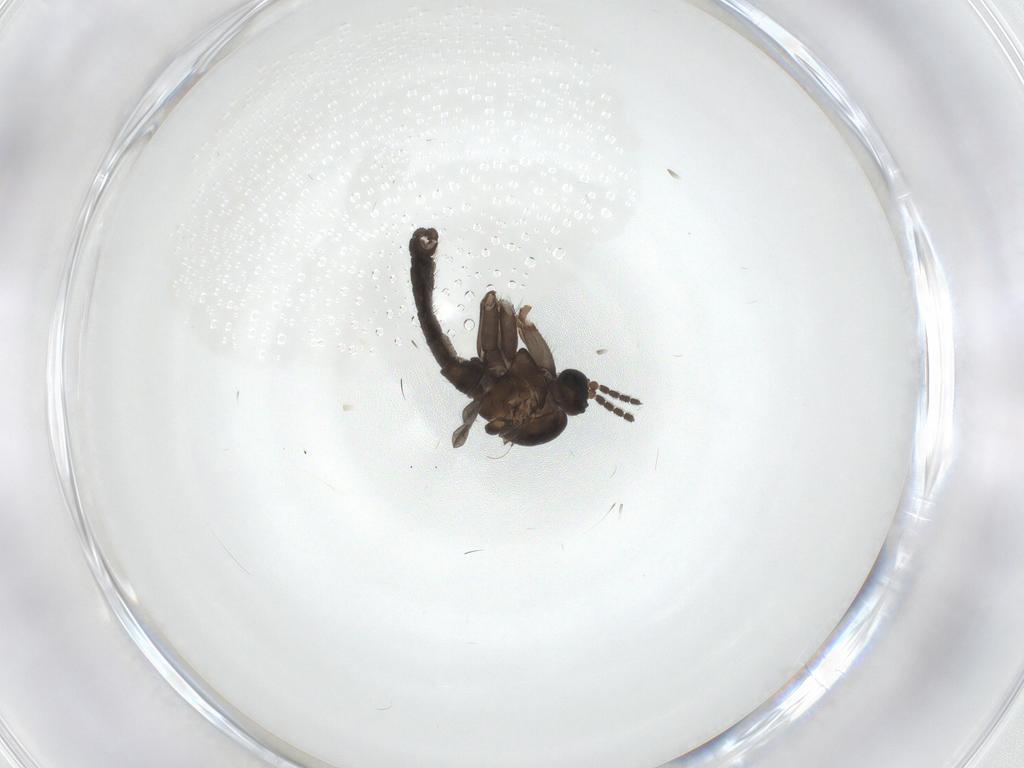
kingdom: Animalia
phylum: Arthropoda
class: Insecta
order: Diptera
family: Sciaridae
